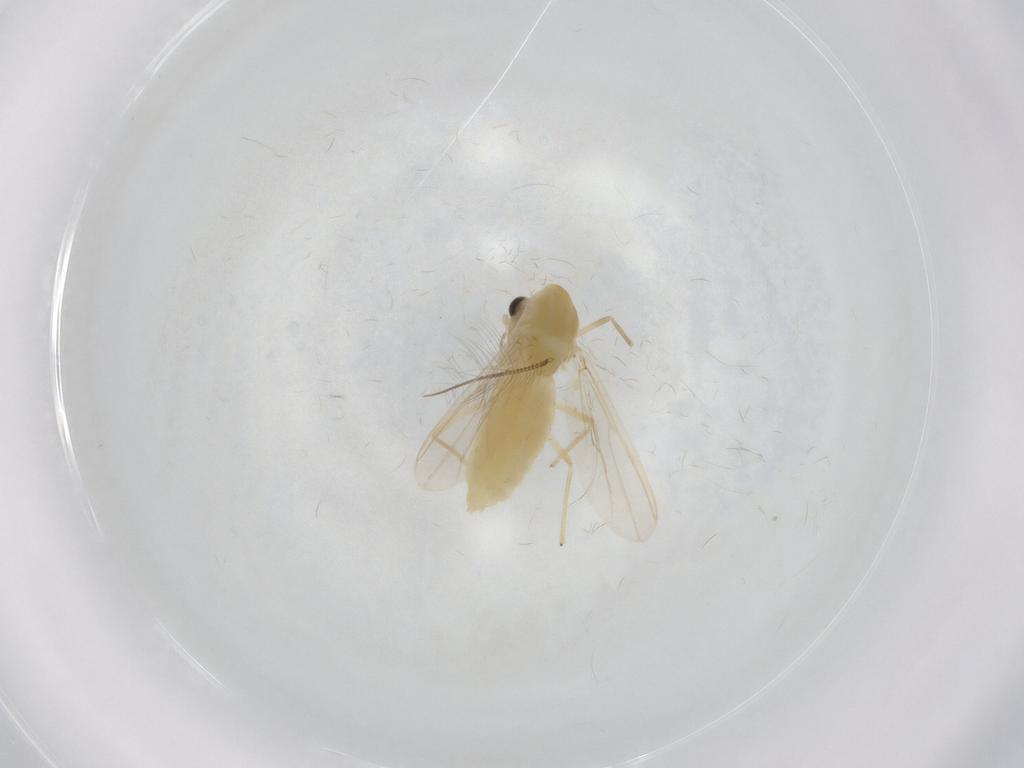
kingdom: Animalia
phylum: Arthropoda
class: Insecta
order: Diptera
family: Chironomidae
